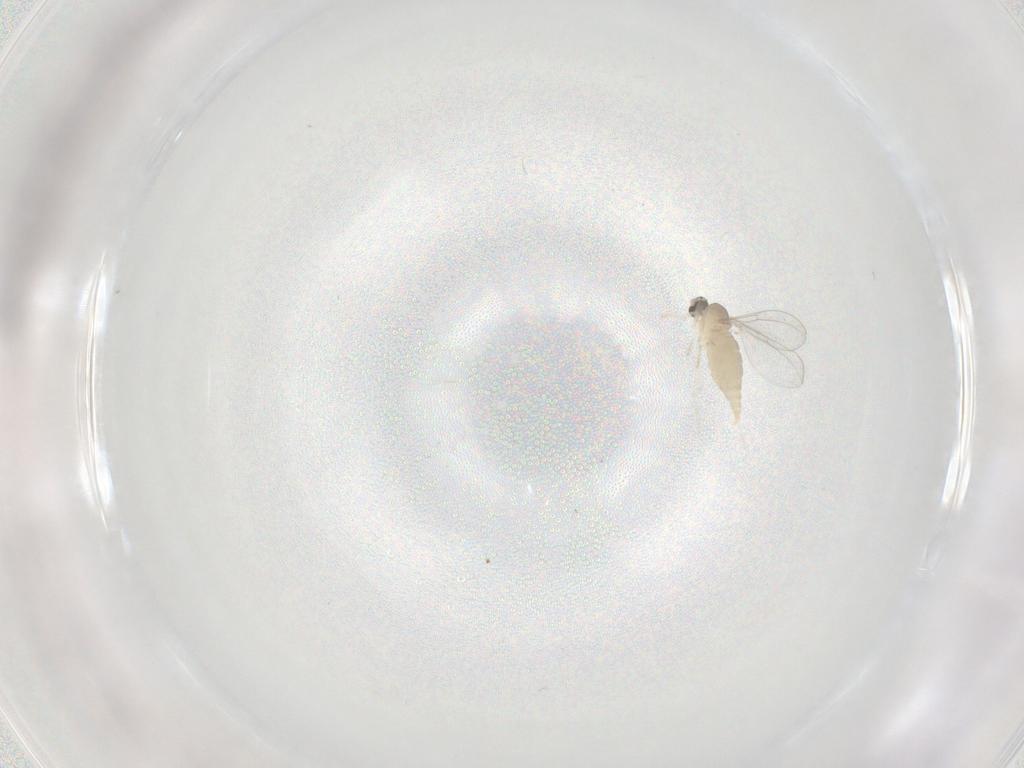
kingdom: Animalia
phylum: Arthropoda
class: Insecta
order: Diptera
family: Cecidomyiidae
